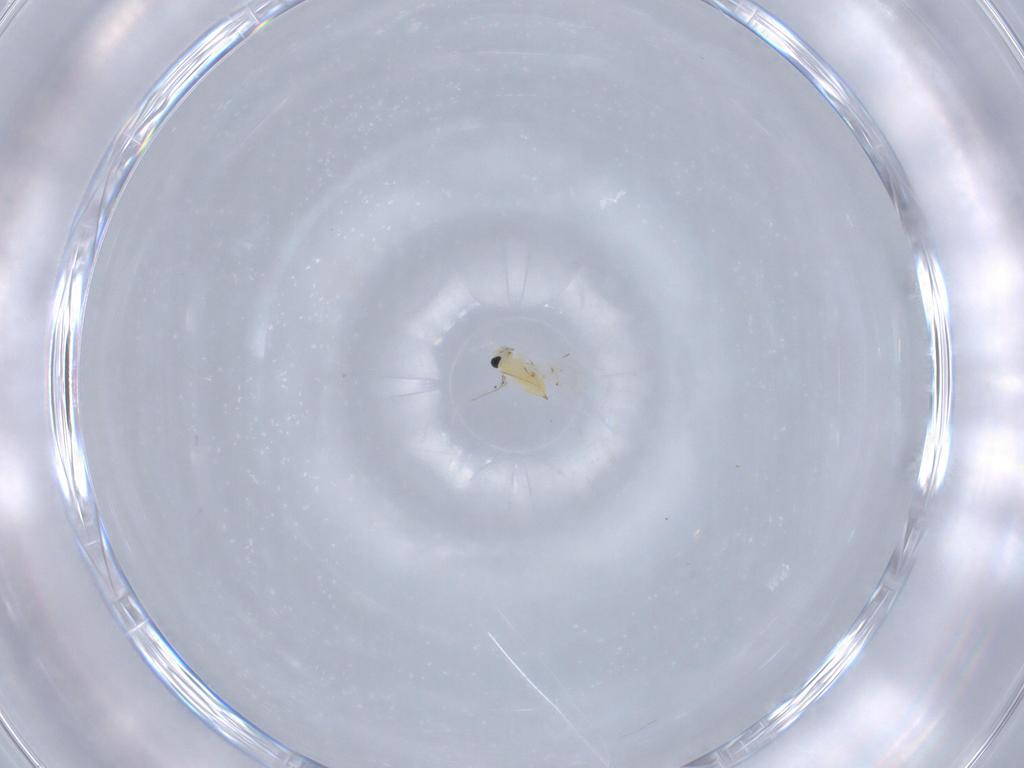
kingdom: Animalia
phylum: Arthropoda
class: Insecta
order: Hymenoptera
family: Trichogrammatidae
